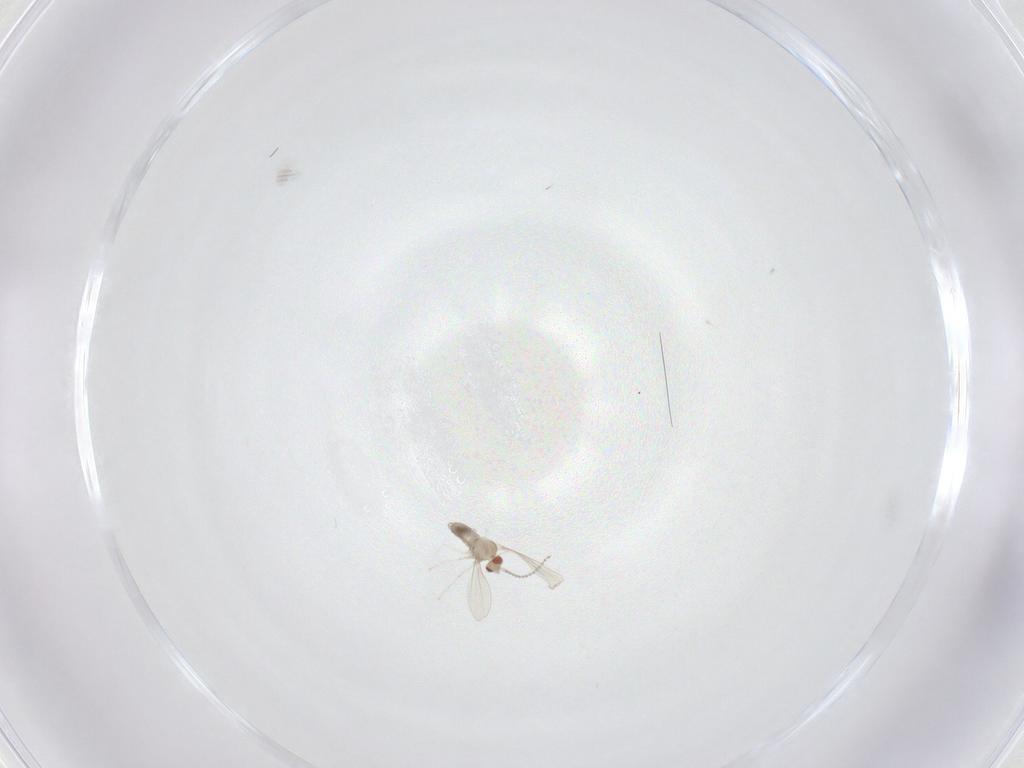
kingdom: Animalia
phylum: Arthropoda
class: Insecta
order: Diptera
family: Cecidomyiidae
